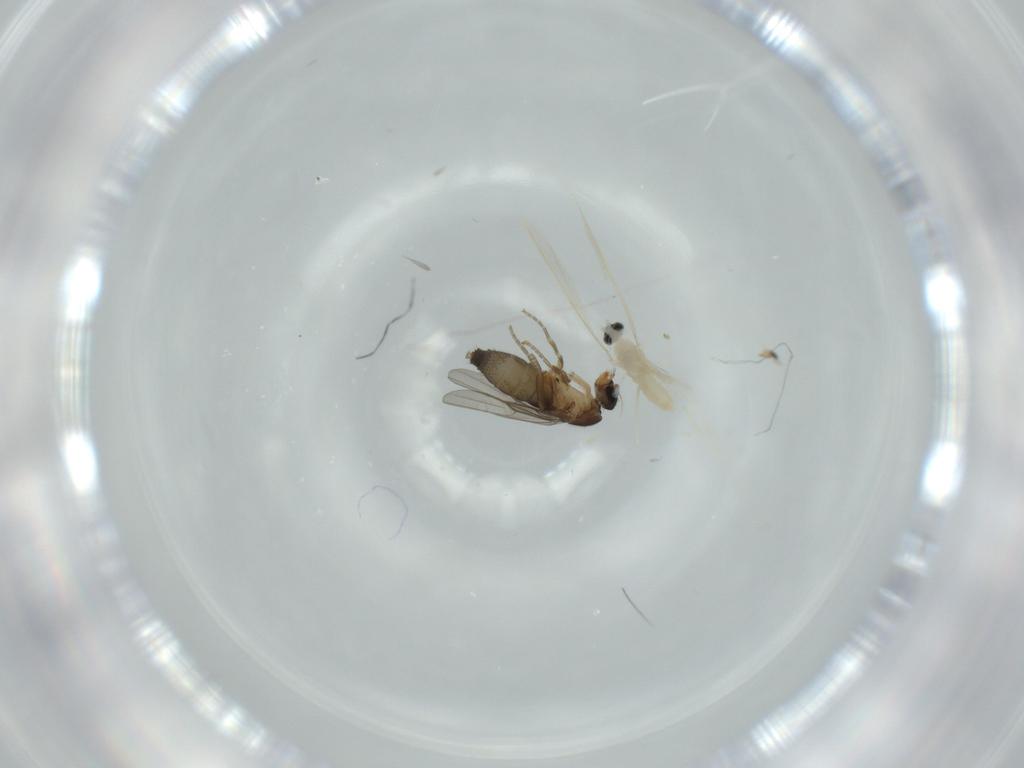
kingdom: Animalia
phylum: Arthropoda
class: Insecta
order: Diptera
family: Phoridae
